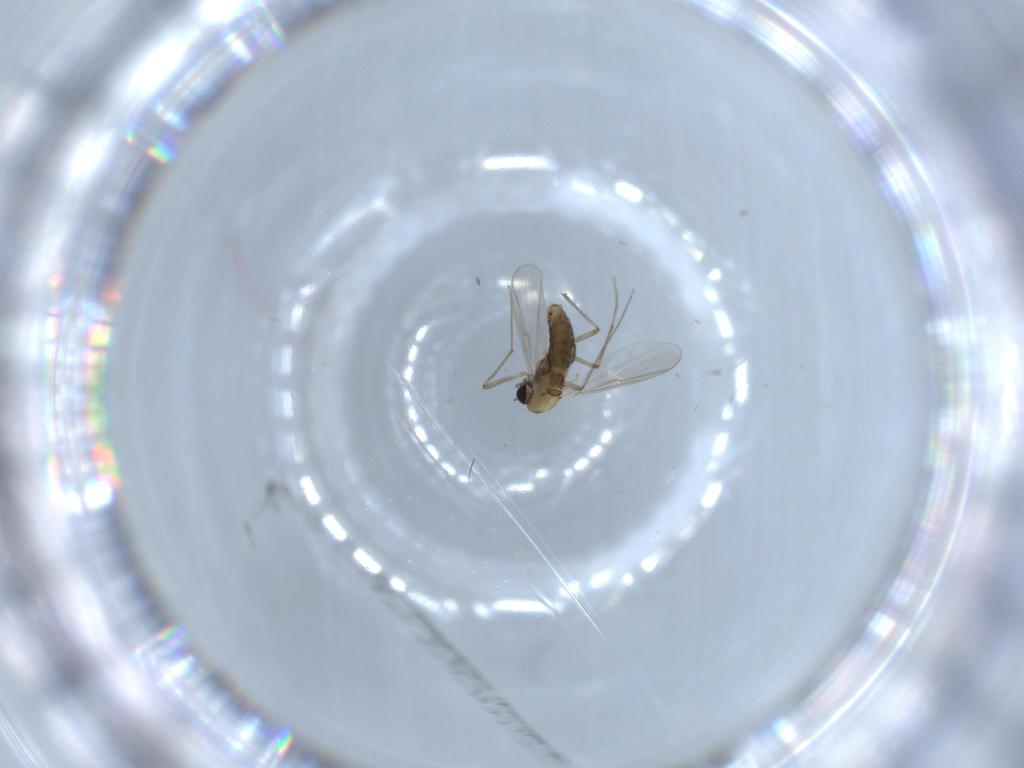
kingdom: Animalia
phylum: Arthropoda
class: Insecta
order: Diptera
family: Chironomidae
